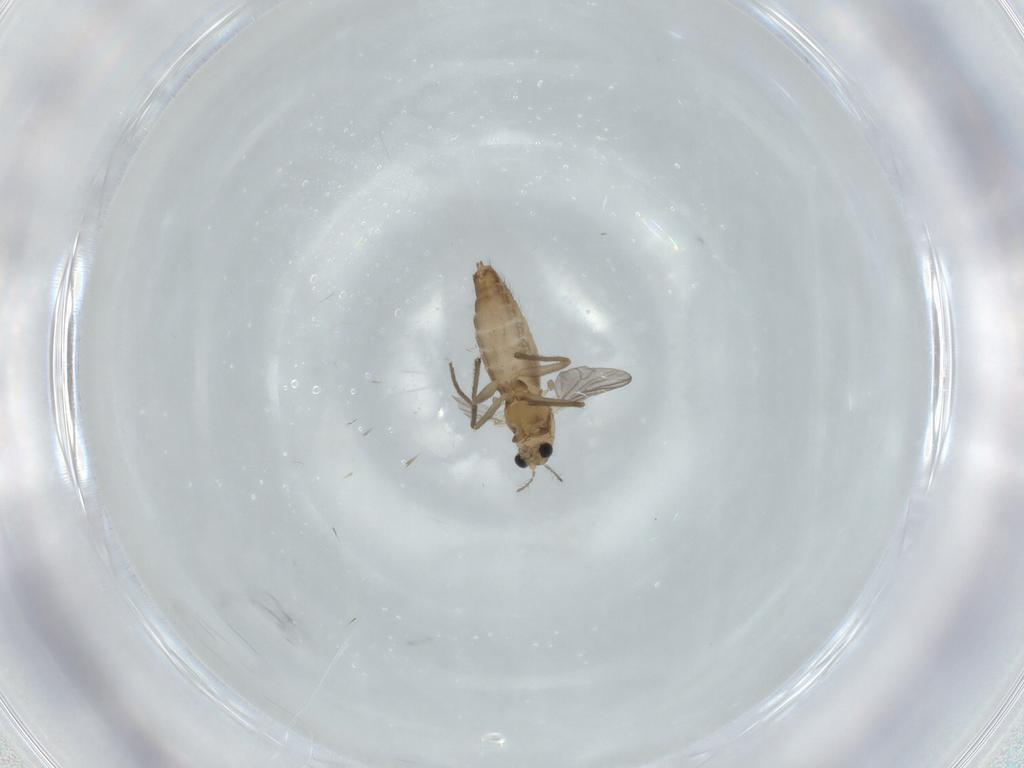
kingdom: Animalia
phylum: Arthropoda
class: Insecta
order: Diptera
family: Chironomidae
